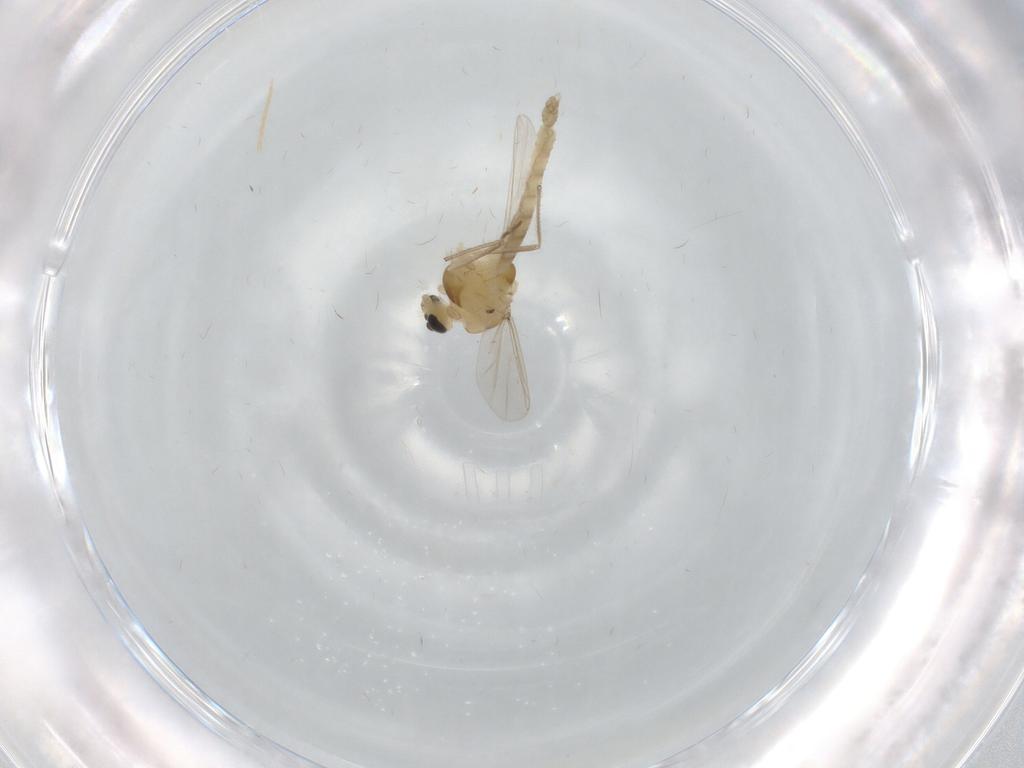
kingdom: Animalia
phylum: Arthropoda
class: Insecta
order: Diptera
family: Chironomidae
